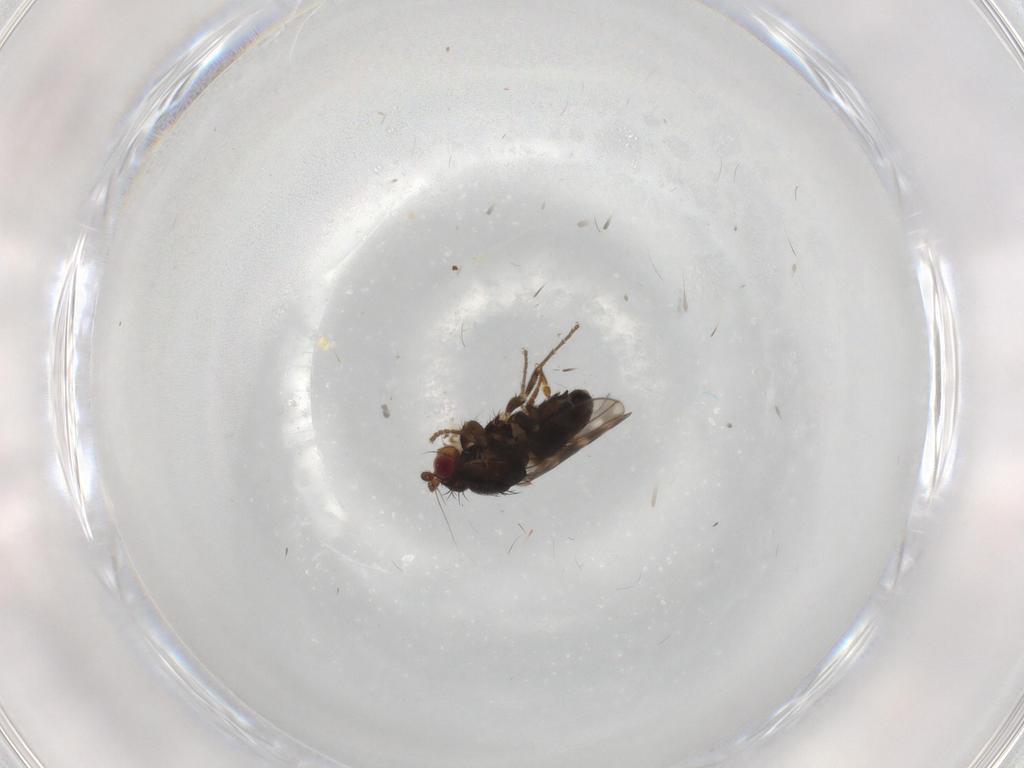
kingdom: Animalia
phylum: Arthropoda
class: Insecta
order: Diptera
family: Sphaeroceridae
